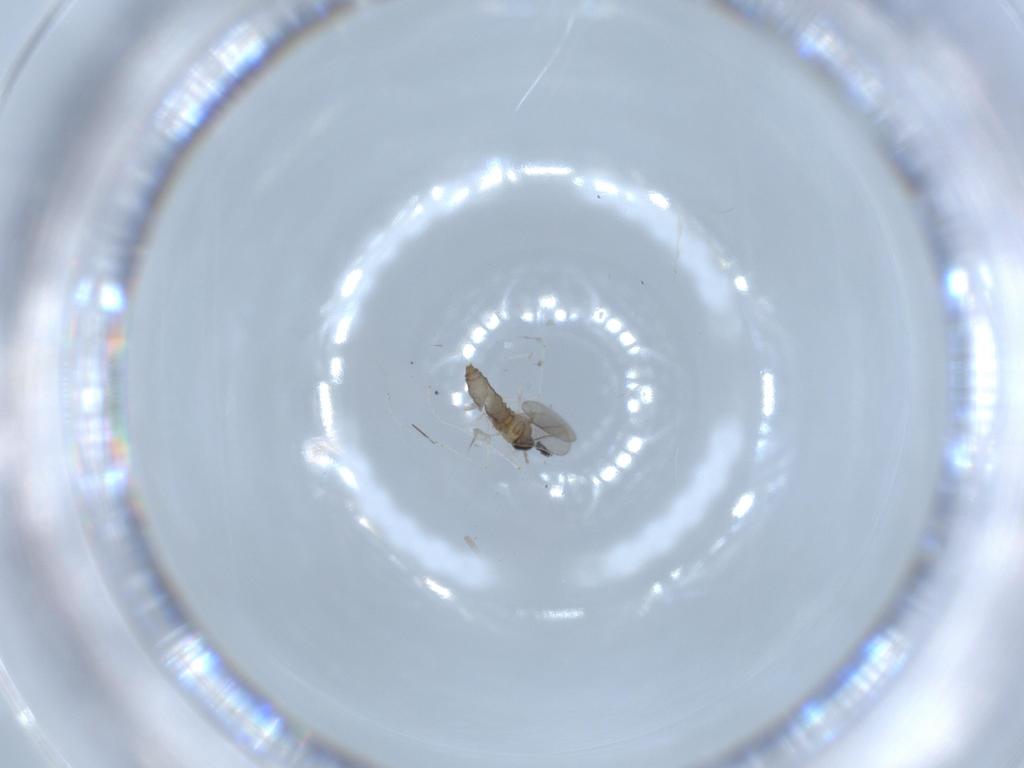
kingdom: Animalia
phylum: Arthropoda
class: Insecta
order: Diptera
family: Cecidomyiidae
